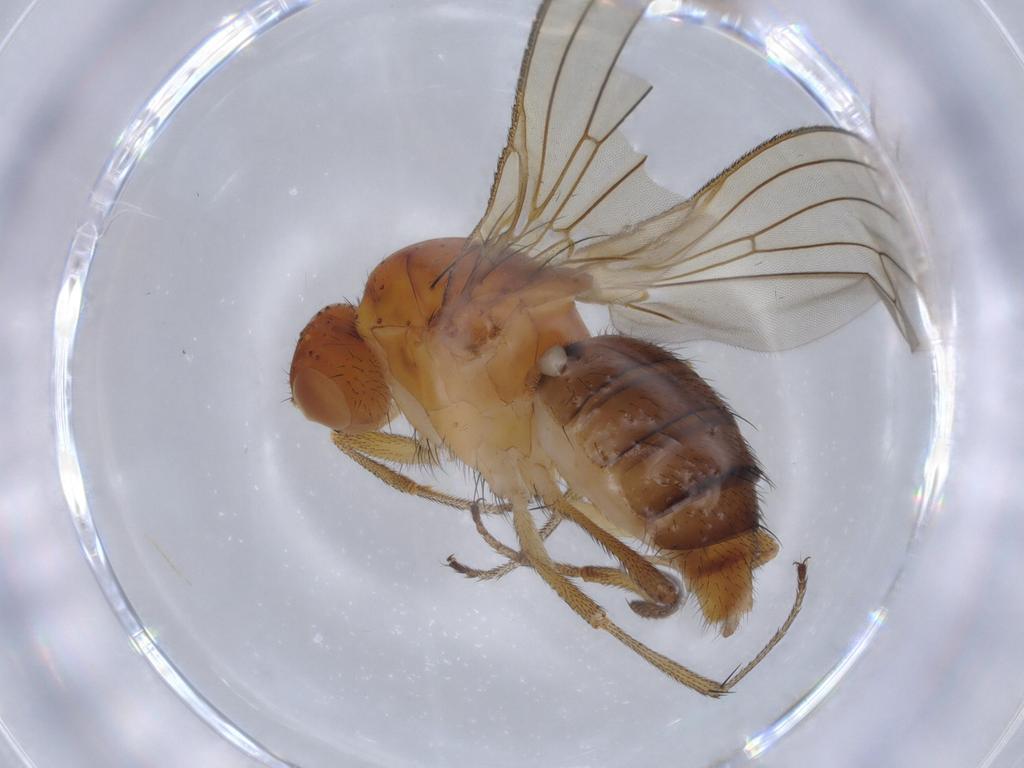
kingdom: Animalia
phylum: Arthropoda
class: Insecta
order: Diptera
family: Heleomyzidae
